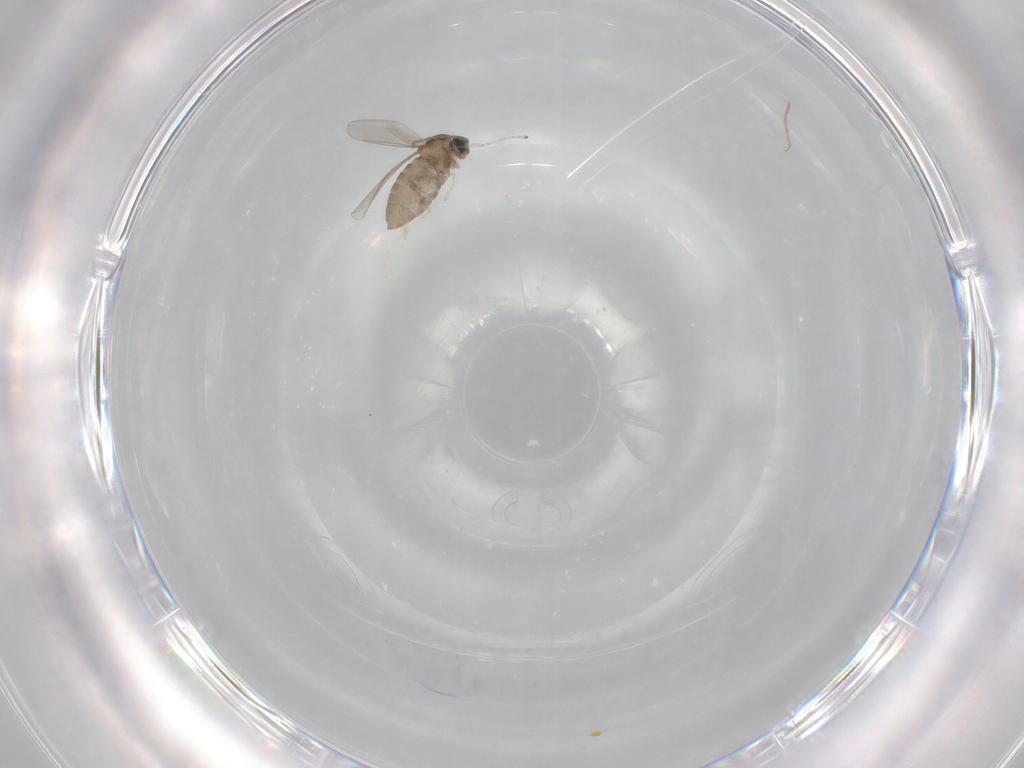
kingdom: Animalia
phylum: Arthropoda
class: Insecta
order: Diptera
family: Cecidomyiidae
